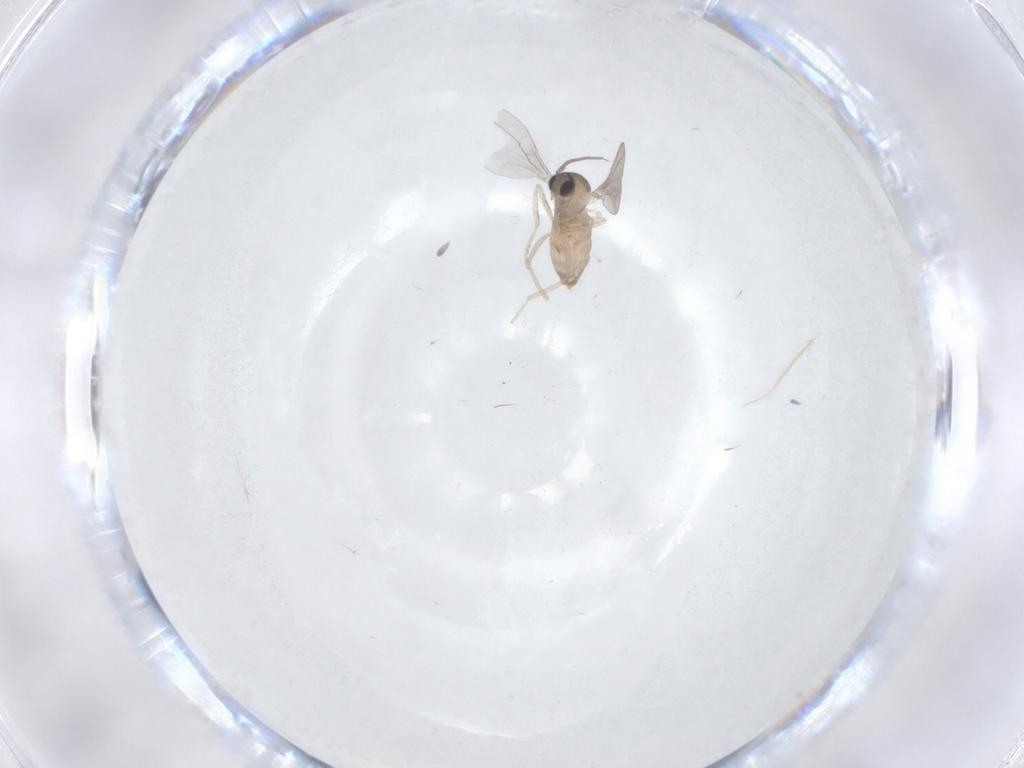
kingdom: Animalia
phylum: Arthropoda
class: Insecta
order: Diptera
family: Cecidomyiidae
